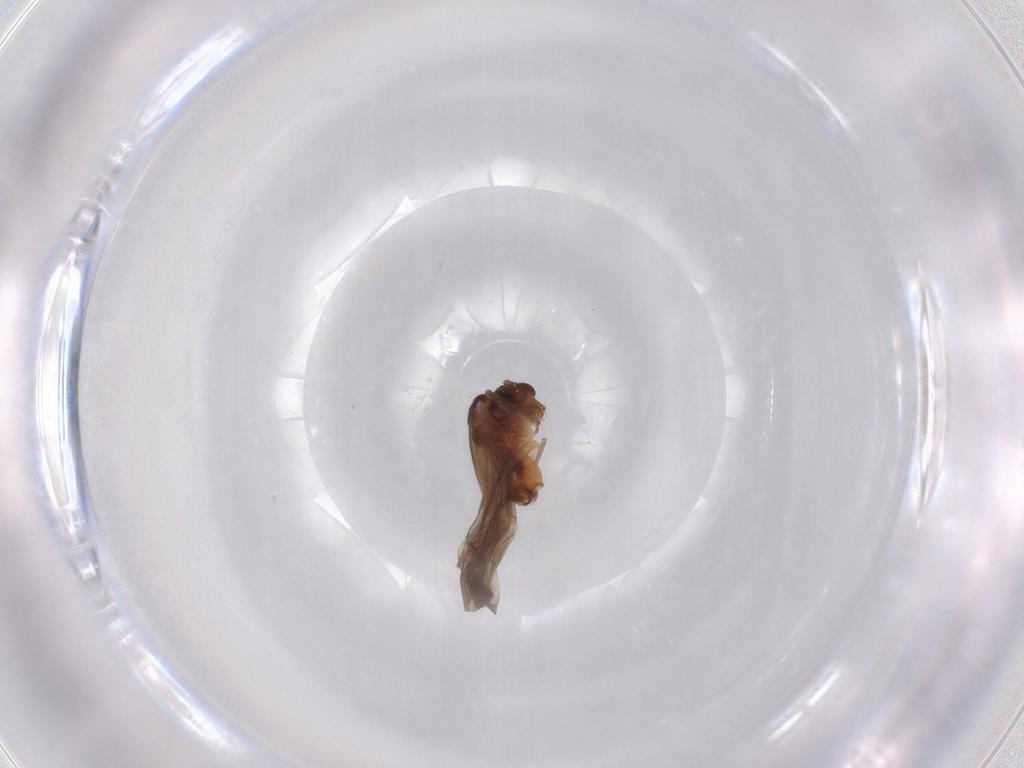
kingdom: Animalia
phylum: Arthropoda
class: Insecta
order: Psocodea
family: Caeciliusidae
